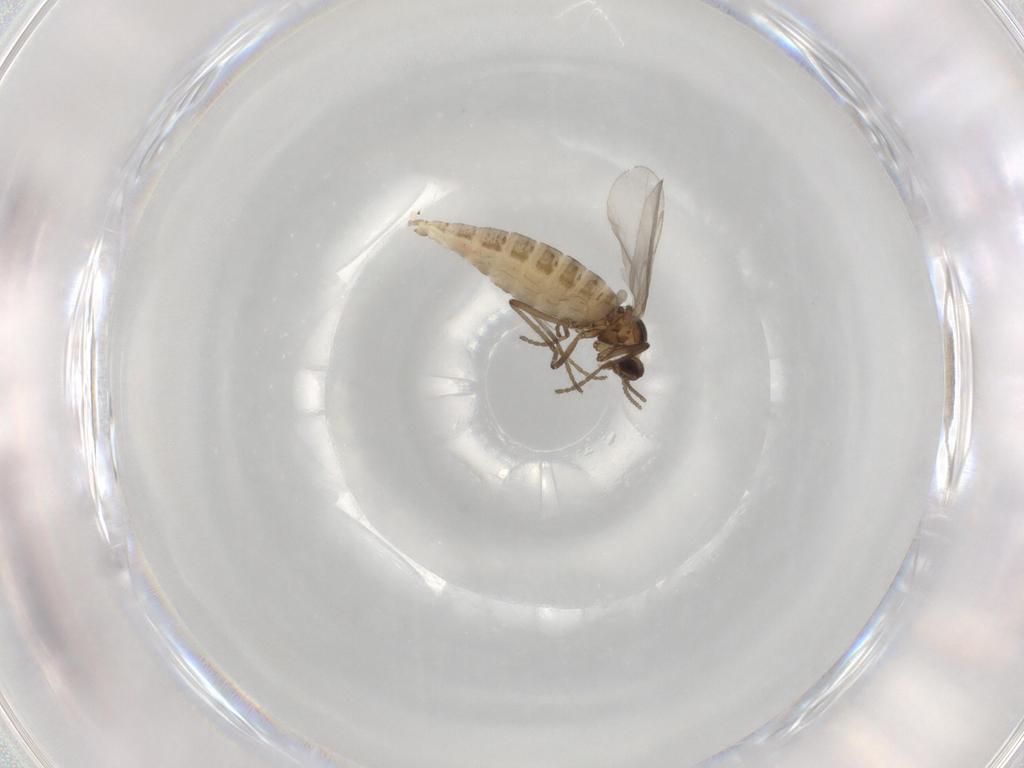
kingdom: Animalia
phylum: Arthropoda
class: Insecta
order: Diptera
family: Cecidomyiidae
